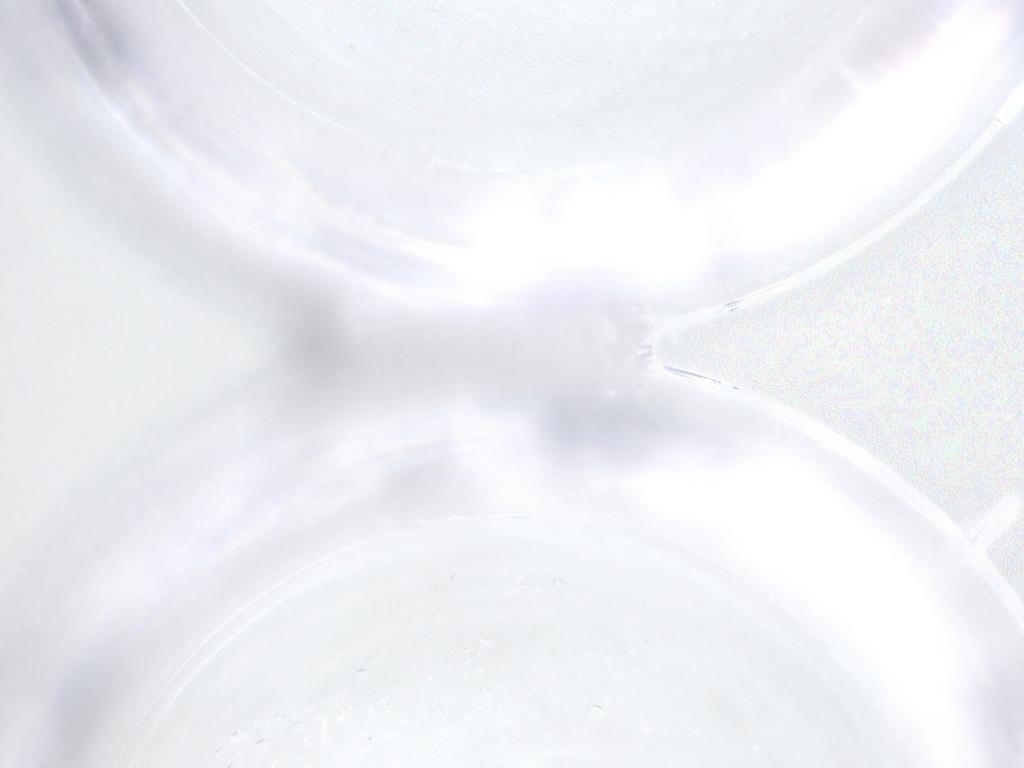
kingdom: Animalia
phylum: Arthropoda
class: Insecta
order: Diptera
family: Ceratopogonidae
